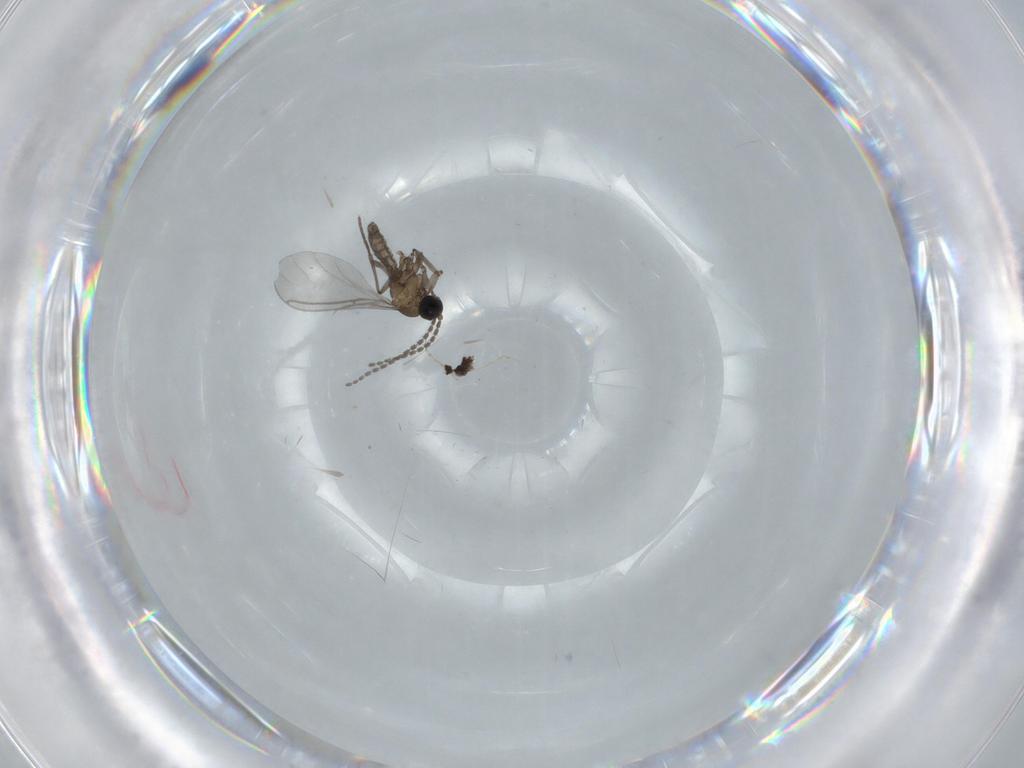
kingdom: Animalia
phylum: Arthropoda
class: Insecta
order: Diptera
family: Sciaridae
